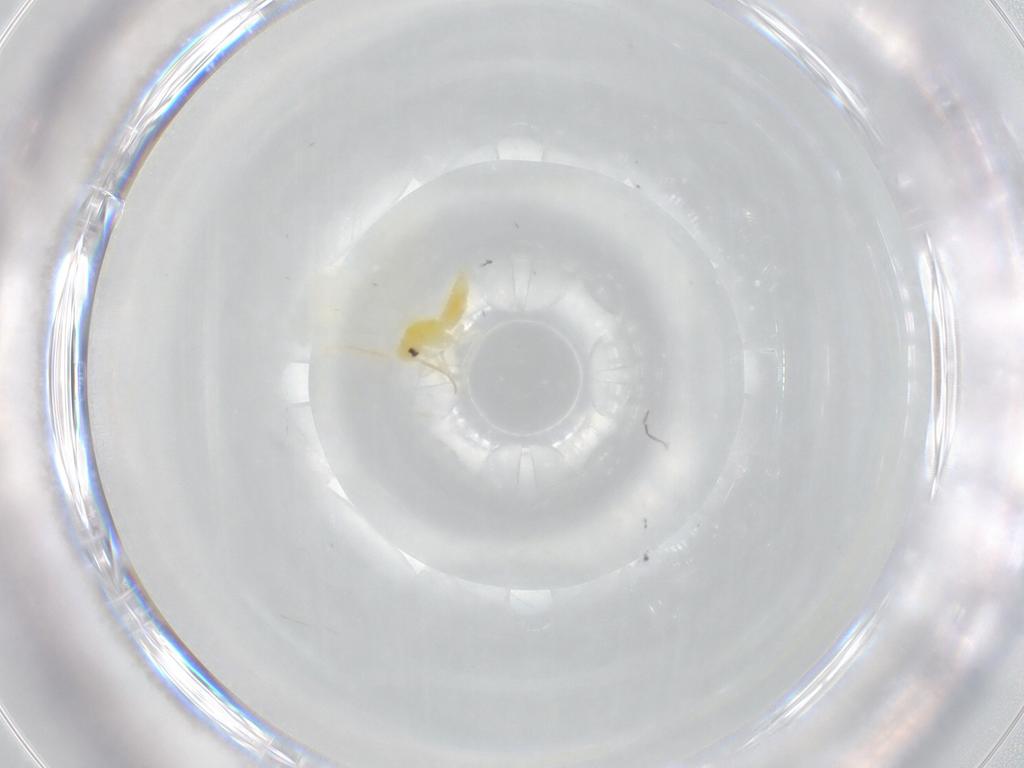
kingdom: Animalia
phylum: Arthropoda
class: Insecta
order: Hemiptera
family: Aleyrodidae
